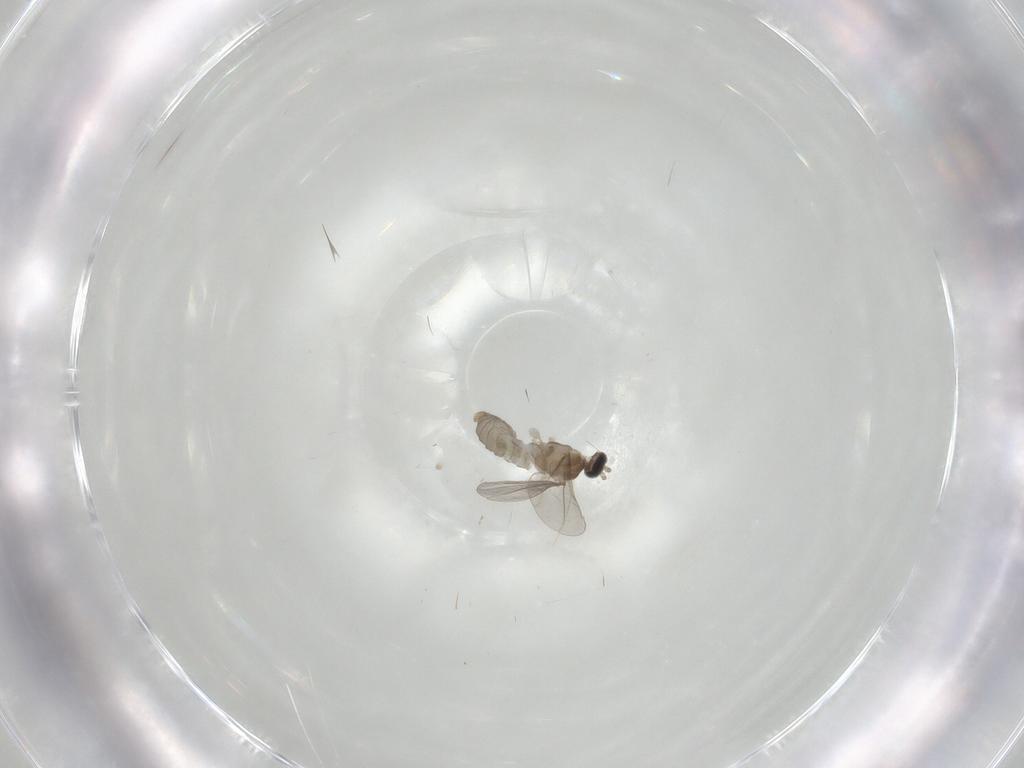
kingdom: Animalia
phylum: Arthropoda
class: Insecta
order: Diptera
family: Cecidomyiidae
